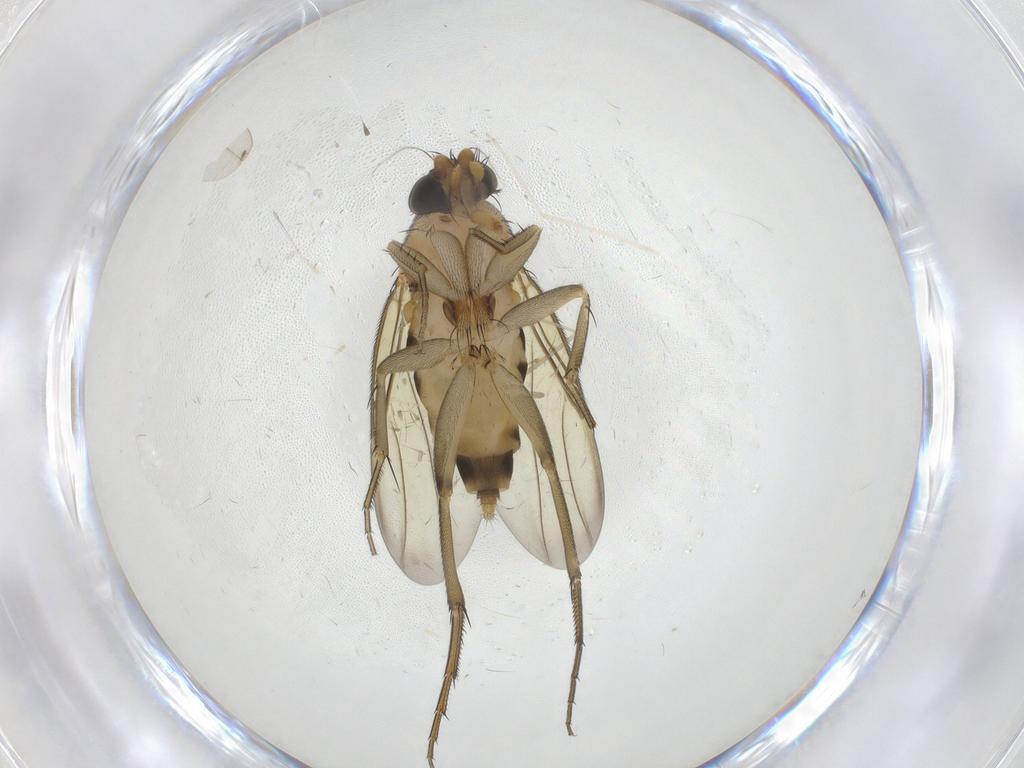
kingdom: Animalia
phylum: Arthropoda
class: Insecta
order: Diptera
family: Phoridae
